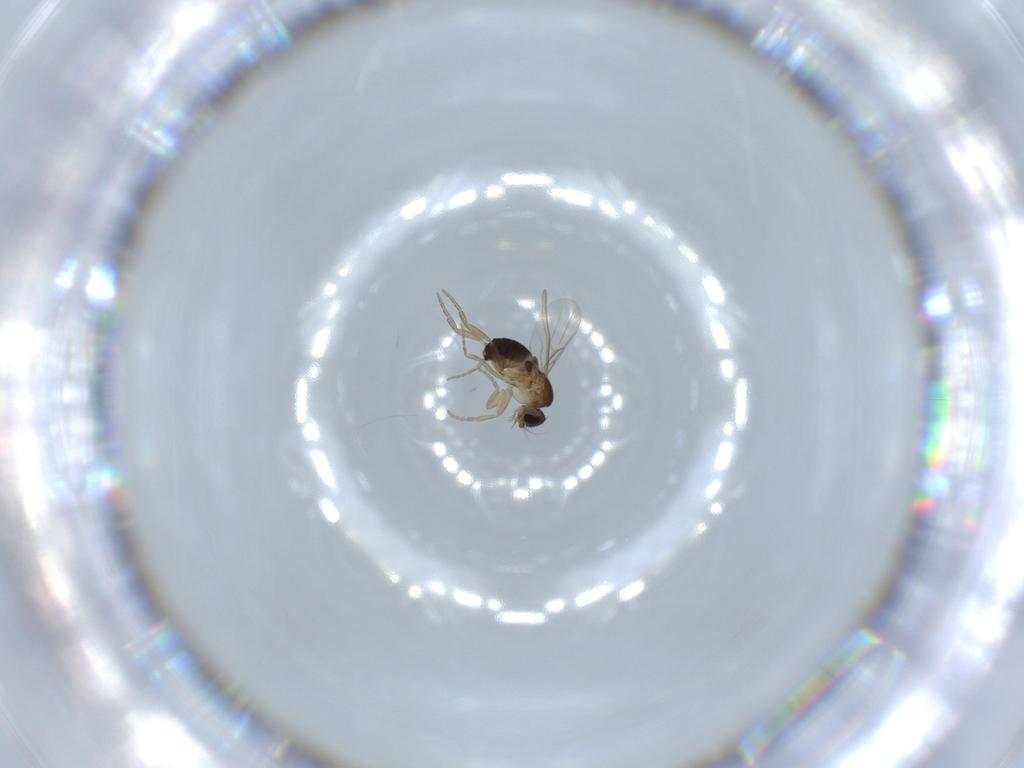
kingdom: Animalia
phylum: Arthropoda
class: Insecta
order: Diptera
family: Phoridae
